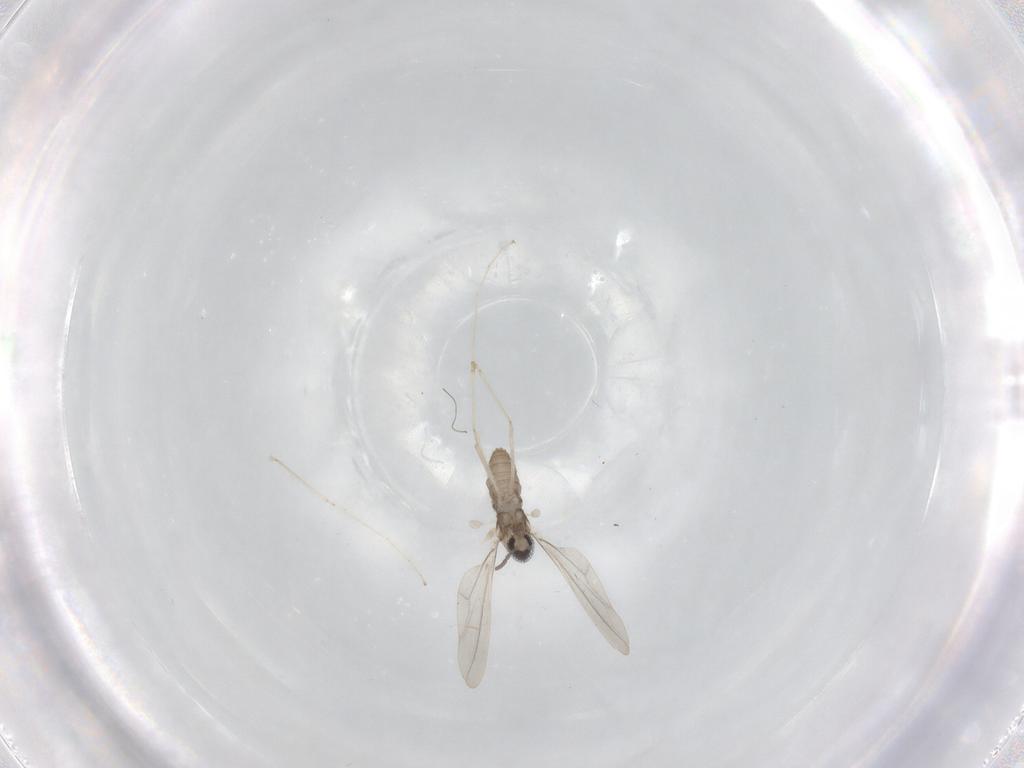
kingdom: Animalia
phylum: Arthropoda
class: Insecta
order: Diptera
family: Cecidomyiidae
